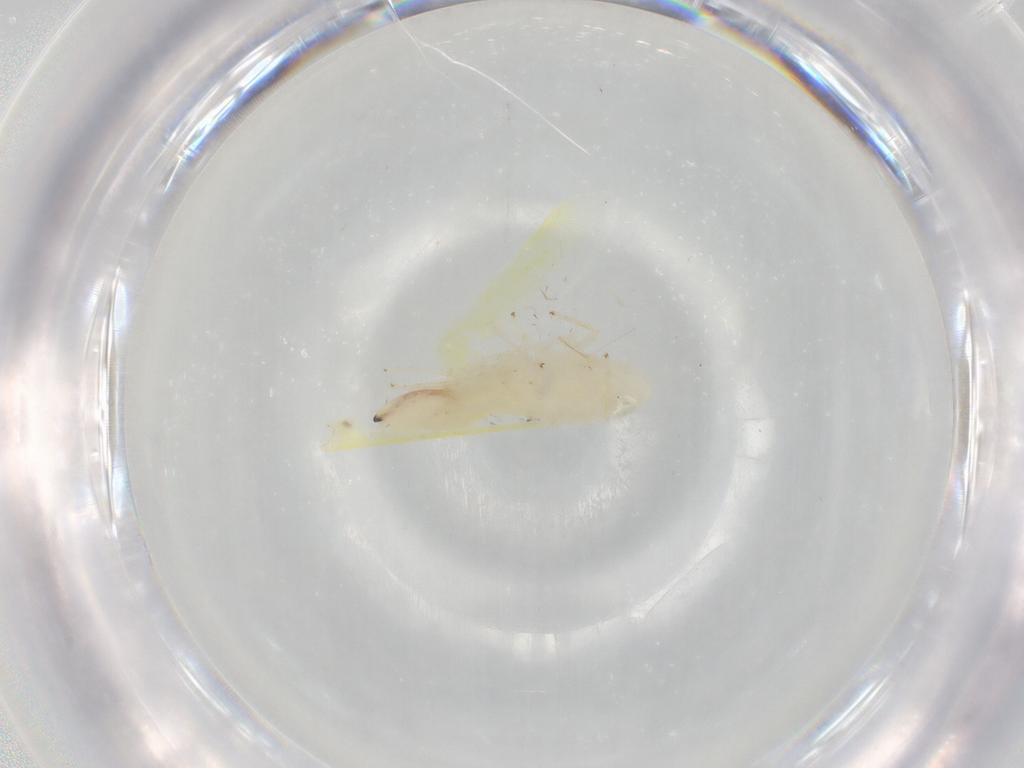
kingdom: Animalia
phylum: Arthropoda
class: Insecta
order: Hemiptera
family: Cicadellidae
